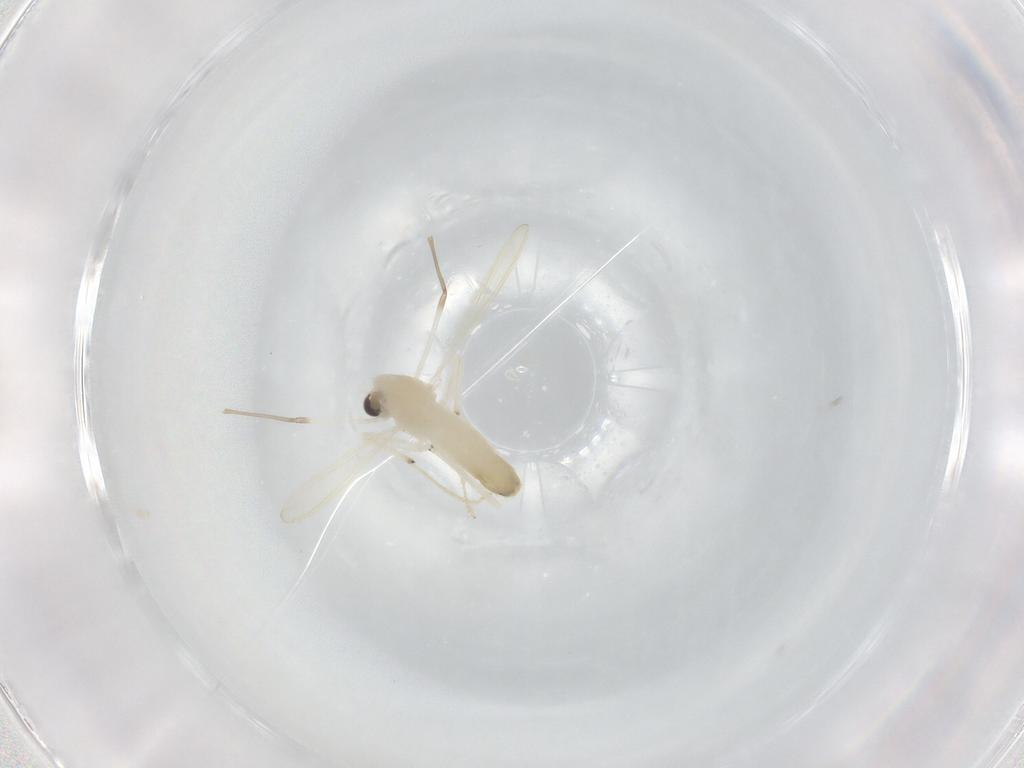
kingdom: Animalia
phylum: Arthropoda
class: Insecta
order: Diptera
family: Chironomidae
